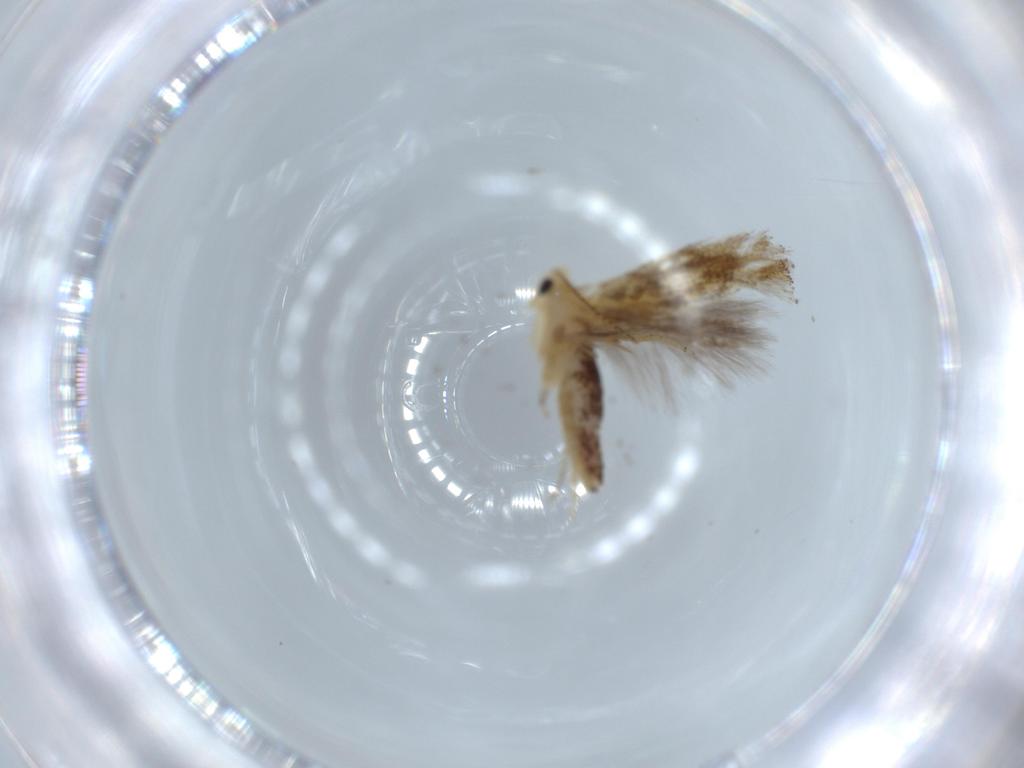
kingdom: Animalia
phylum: Arthropoda
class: Insecta
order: Lepidoptera
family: Bucculatricidae
